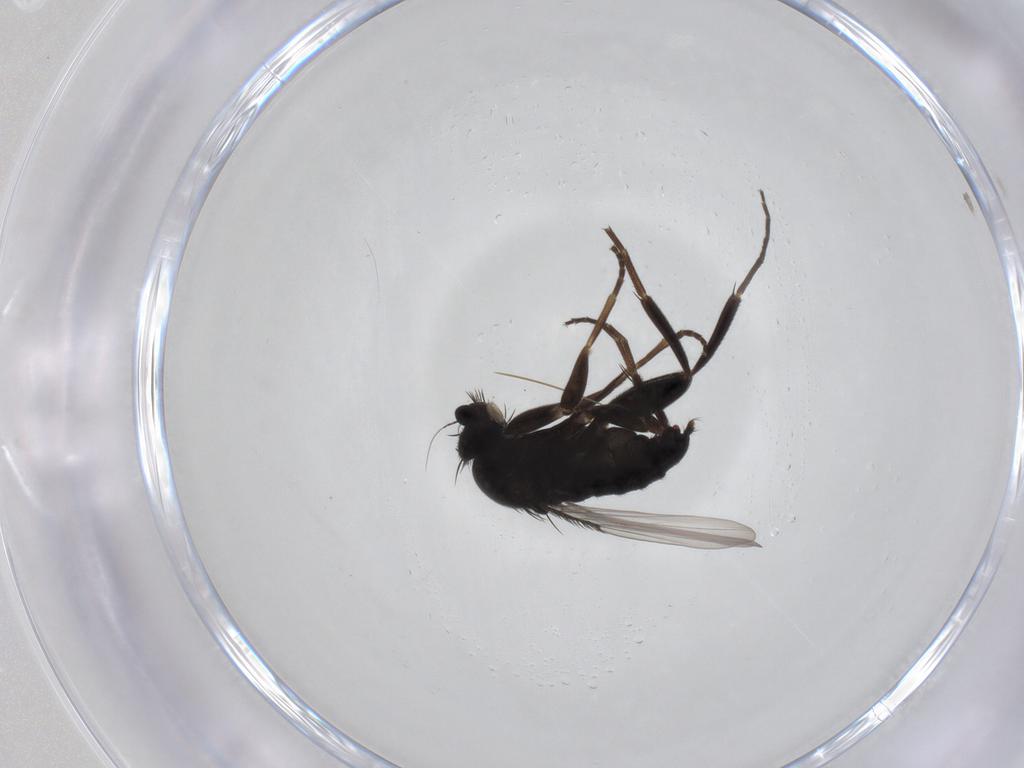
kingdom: Animalia
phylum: Arthropoda
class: Insecta
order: Diptera
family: Phoridae
